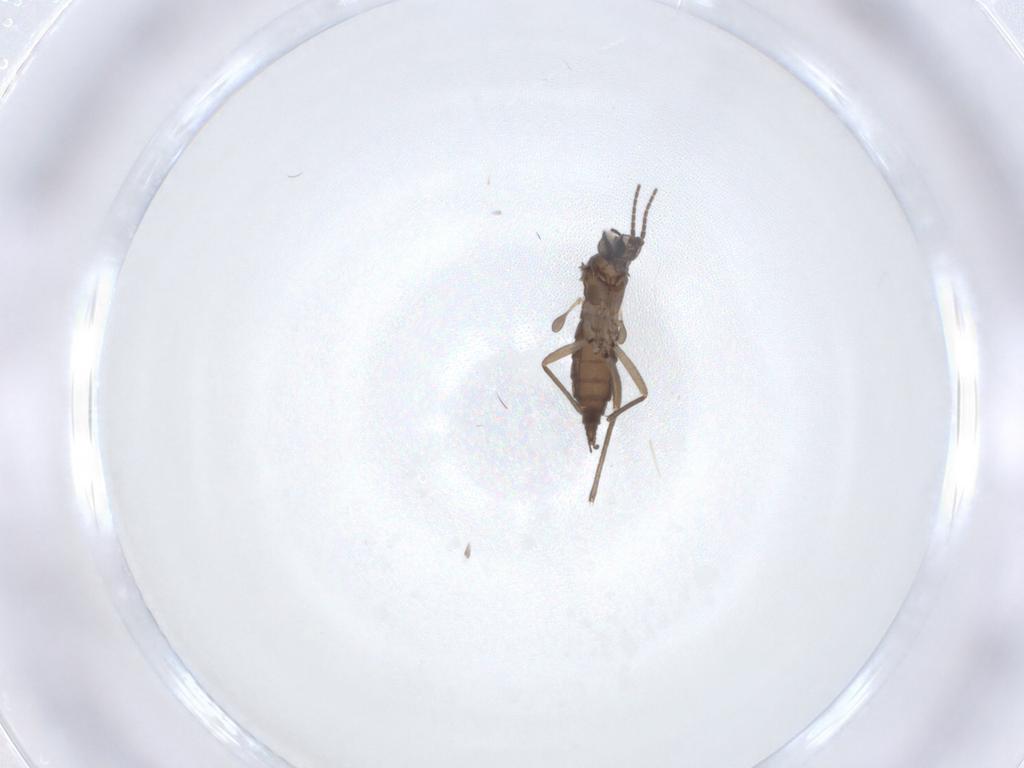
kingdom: Animalia
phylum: Arthropoda
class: Insecta
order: Diptera
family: Sciaridae
